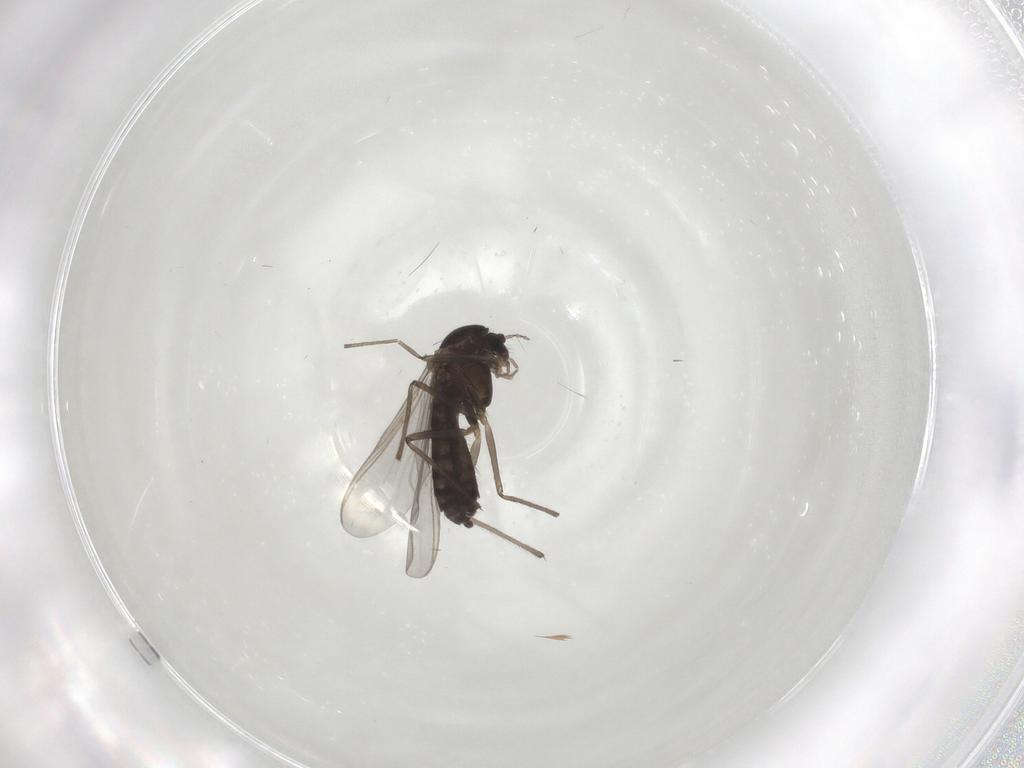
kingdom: Animalia
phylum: Arthropoda
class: Insecta
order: Diptera
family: Chironomidae
